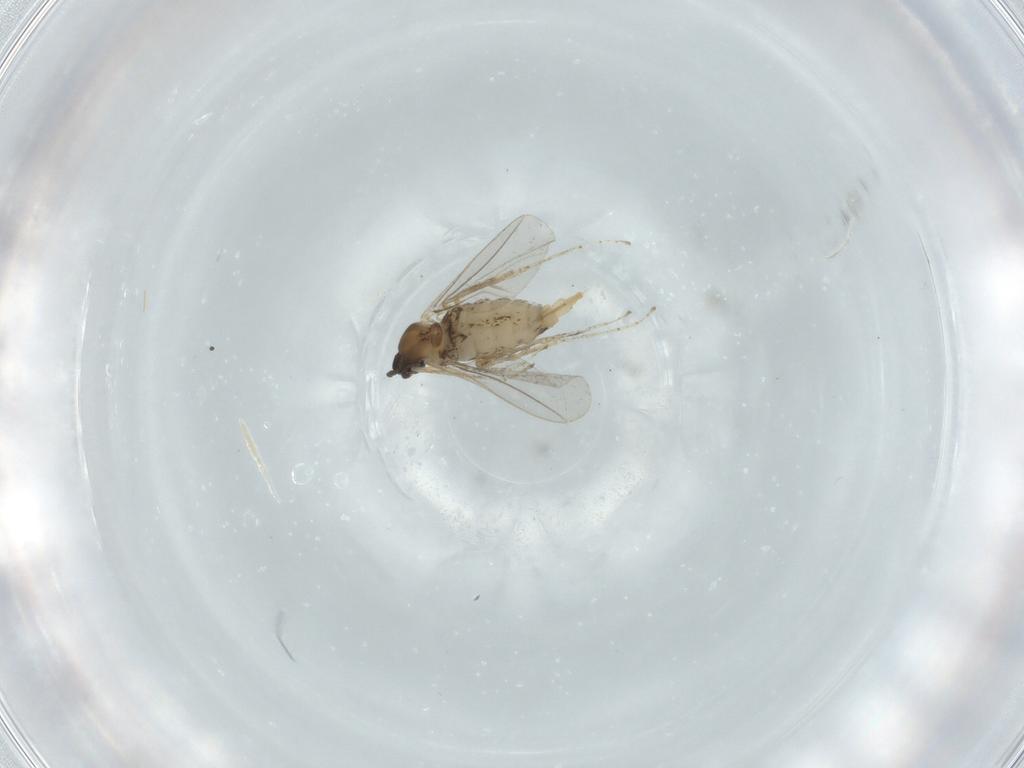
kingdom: Animalia
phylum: Arthropoda
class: Insecta
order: Diptera
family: Cecidomyiidae
